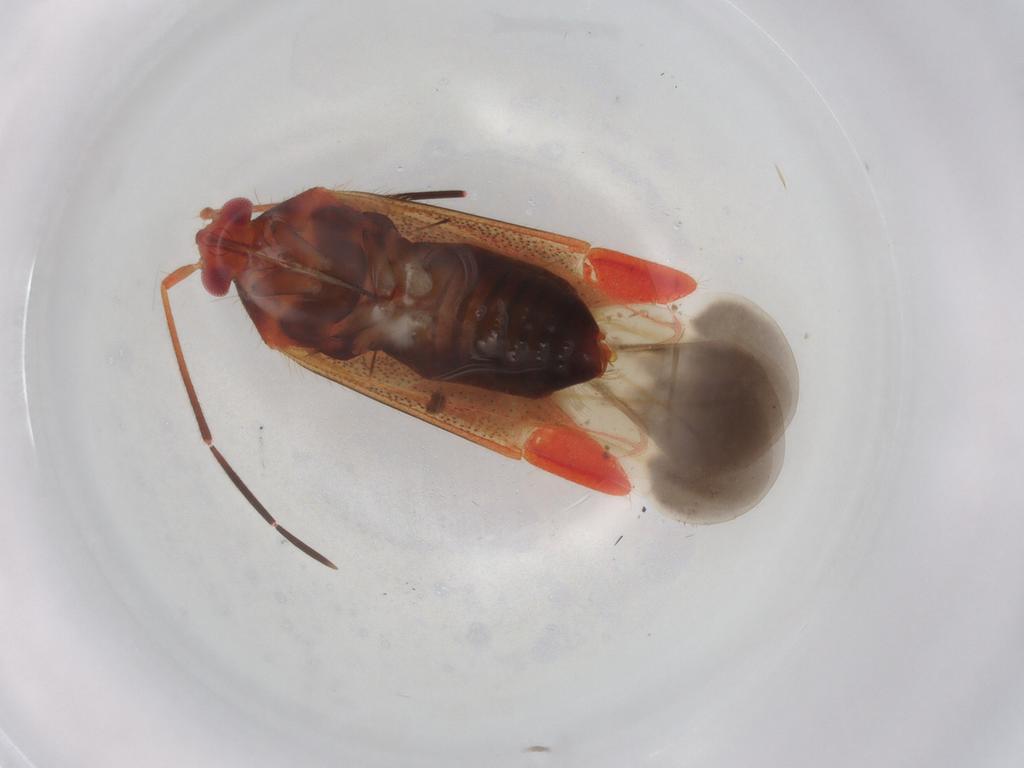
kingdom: Animalia
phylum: Arthropoda
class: Insecta
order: Hemiptera
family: Miridae
